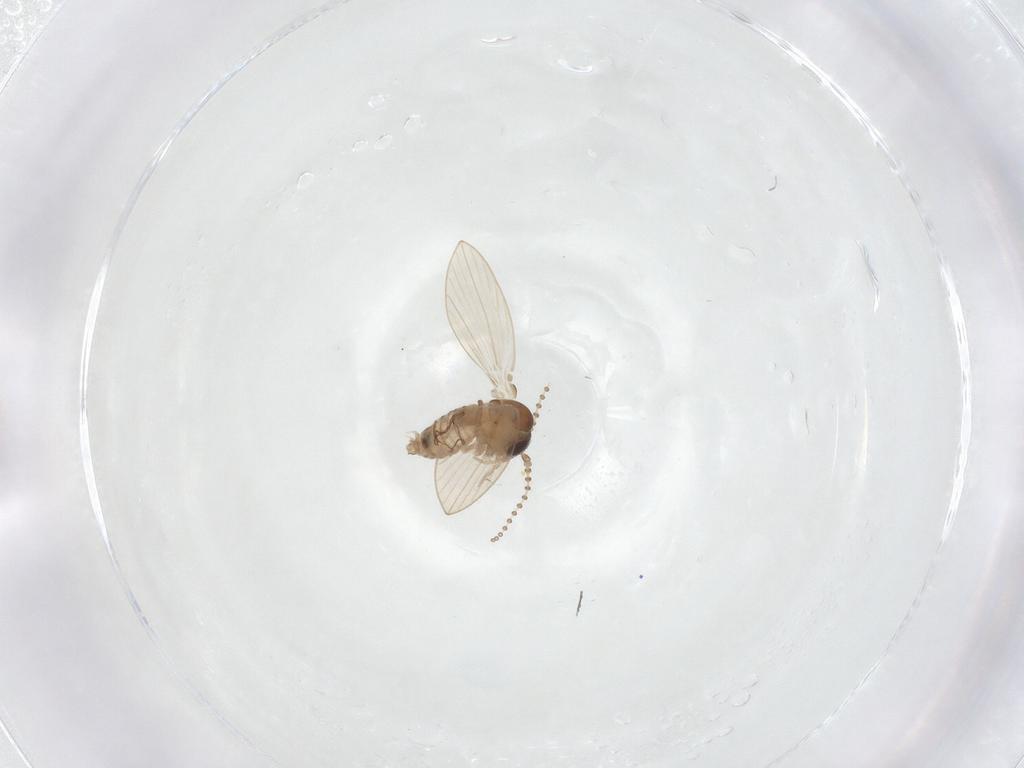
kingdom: Animalia
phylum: Arthropoda
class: Insecta
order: Diptera
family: Psychodidae
